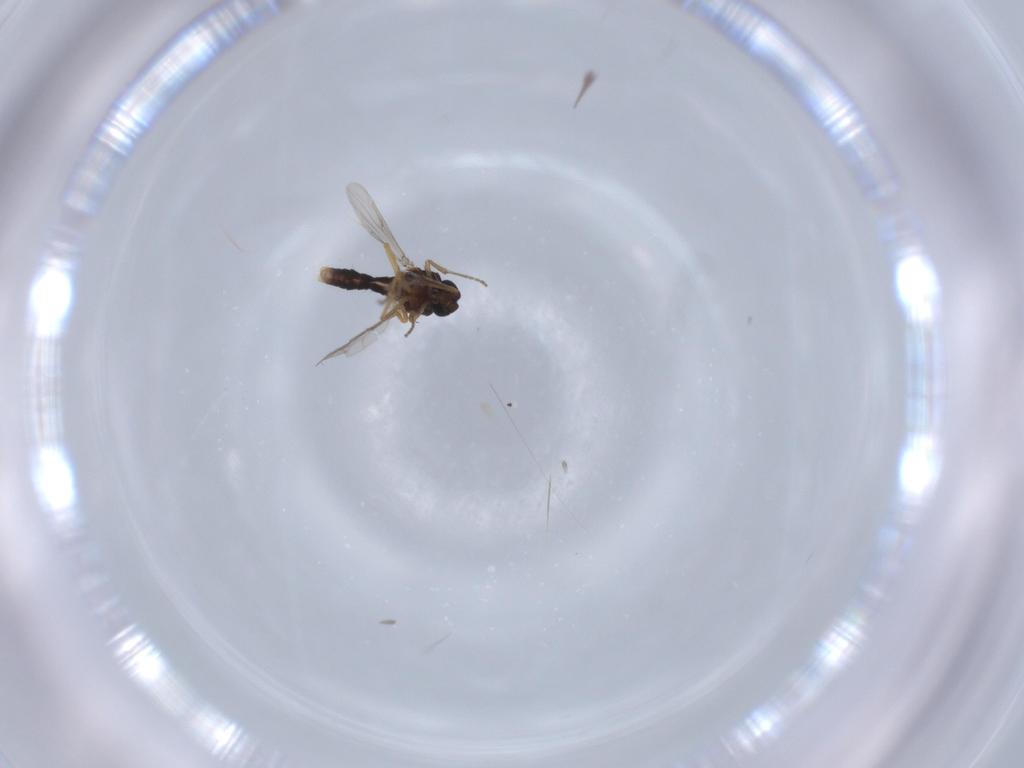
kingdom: Animalia
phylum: Arthropoda
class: Insecta
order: Diptera
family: Ceratopogonidae
